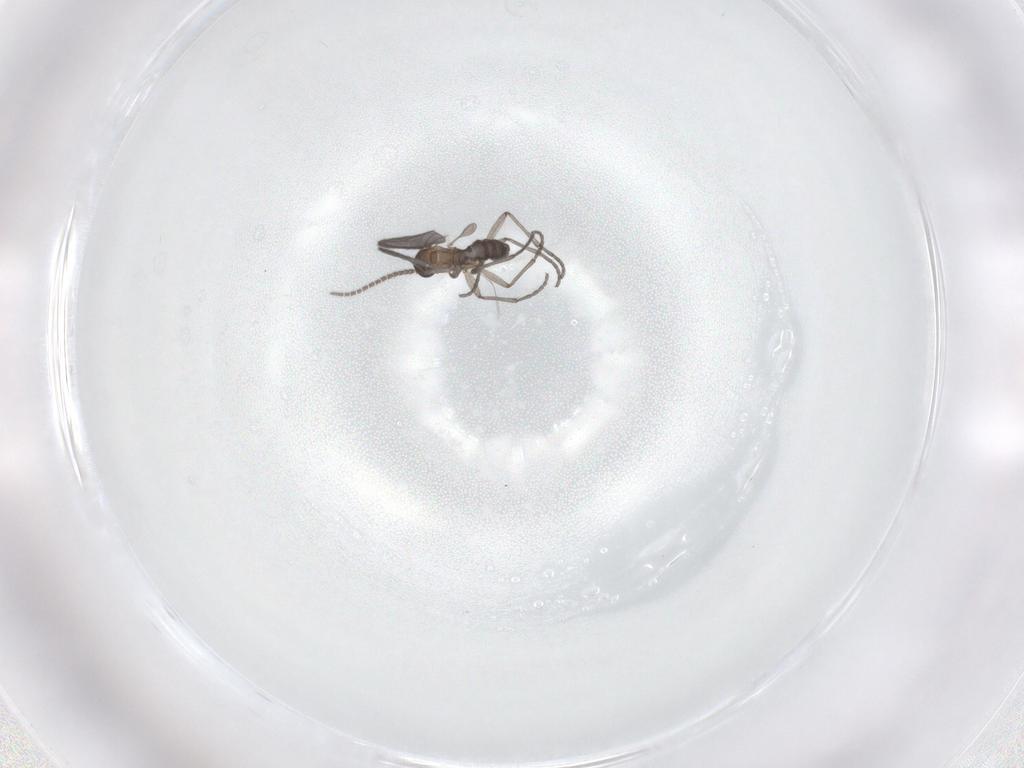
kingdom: Animalia
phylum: Arthropoda
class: Insecta
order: Diptera
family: Sciaridae
